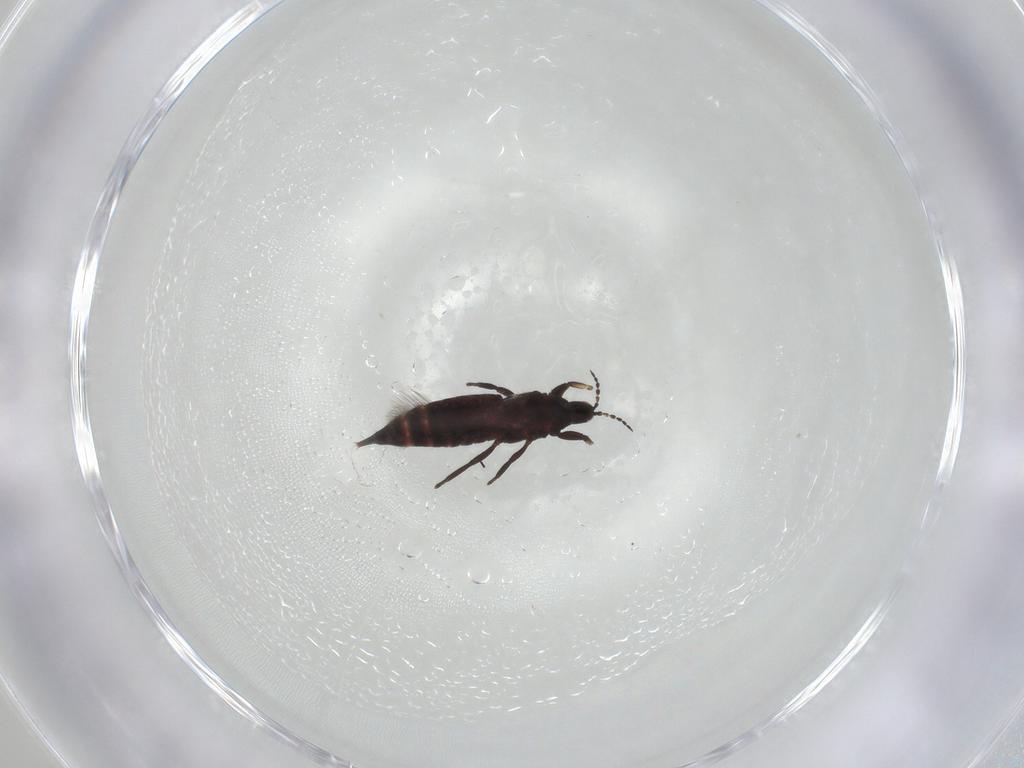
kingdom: Animalia
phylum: Arthropoda
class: Insecta
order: Thysanoptera
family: Phlaeothripidae
